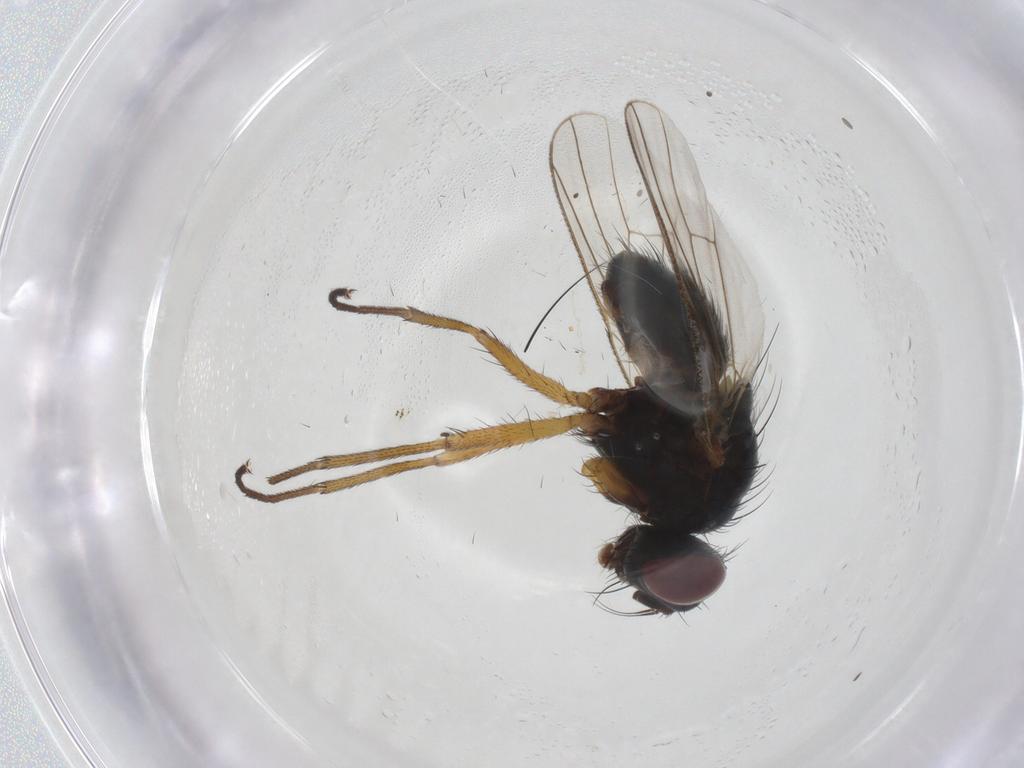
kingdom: Animalia
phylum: Arthropoda
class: Insecta
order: Diptera
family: Muscidae
